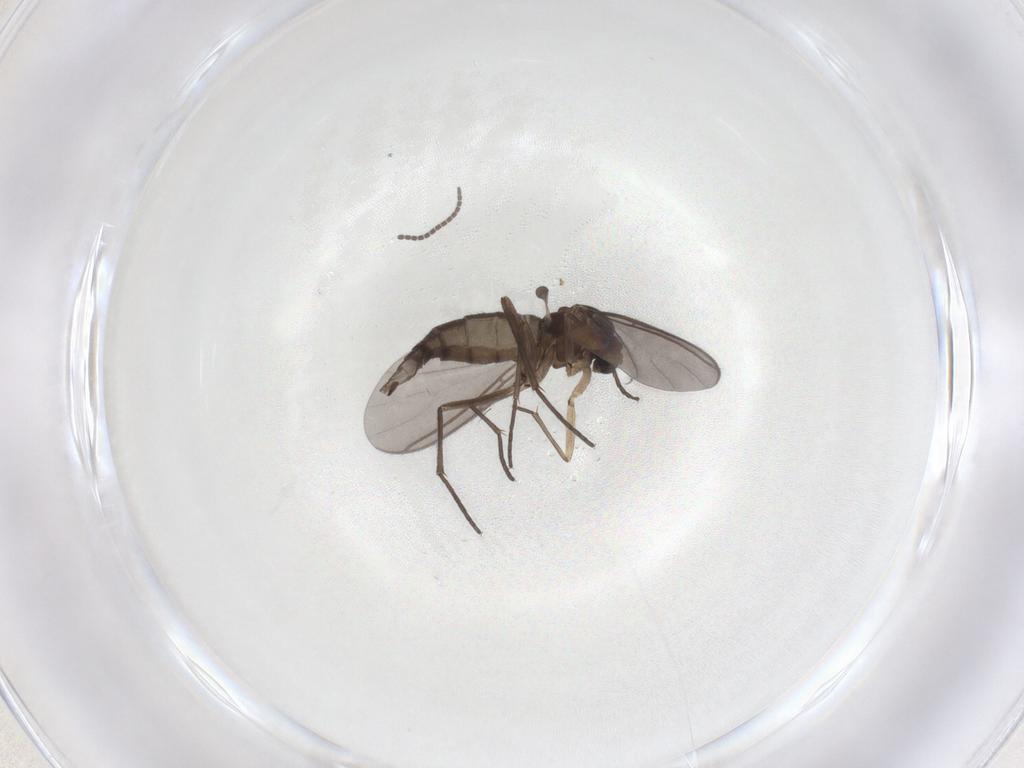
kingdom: Animalia
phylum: Arthropoda
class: Insecta
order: Diptera
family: Sciaridae
